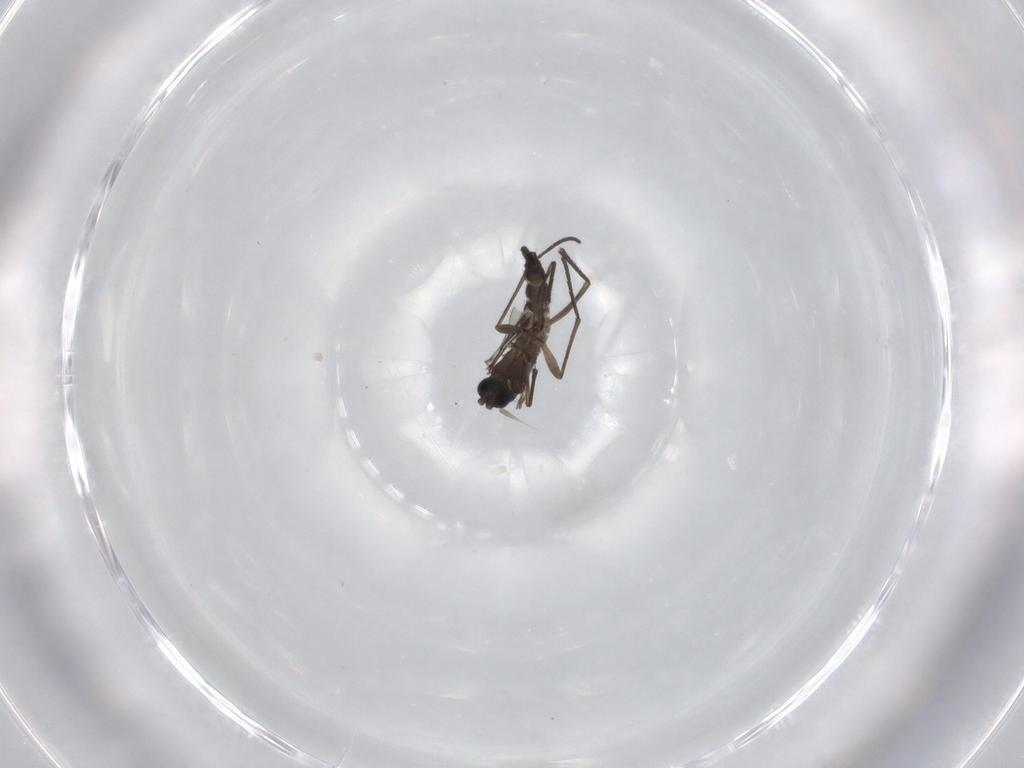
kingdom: Animalia
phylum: Arthropoda
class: Insecta
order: Diptera
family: Sciaridae
